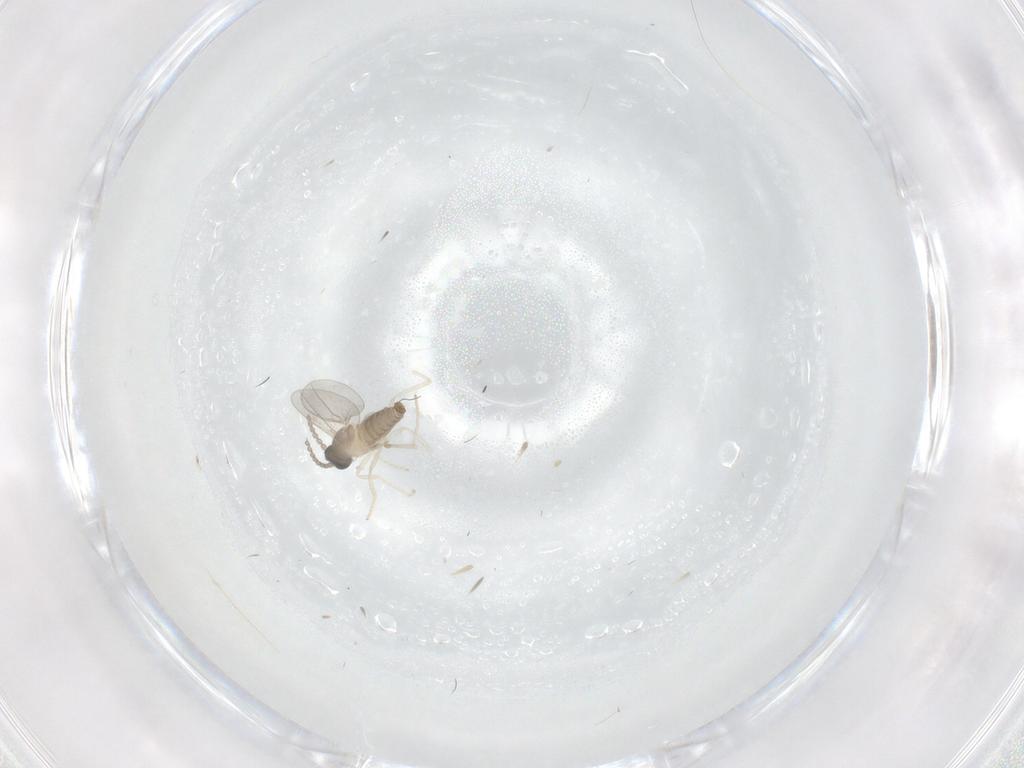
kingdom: Animalia
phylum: Arthropoda
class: Insecta
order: Diptera
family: Cecidomyiidae
